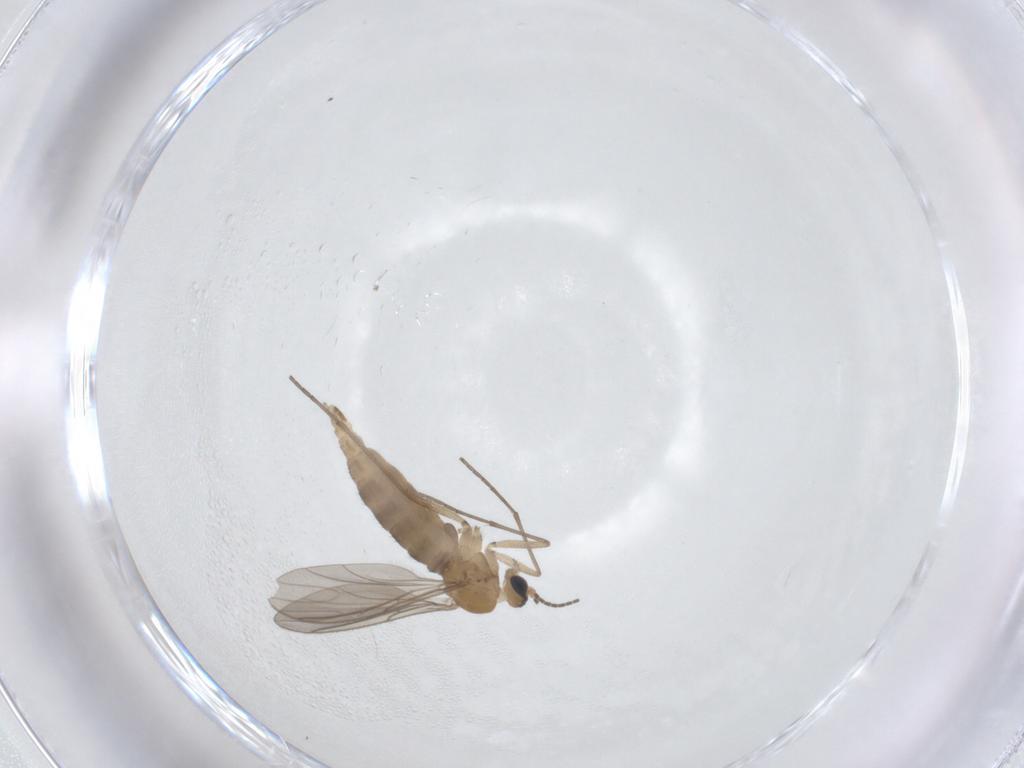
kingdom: Animalia
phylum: Arthropoda
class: Insecta
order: Diptera
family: Sciaridae
